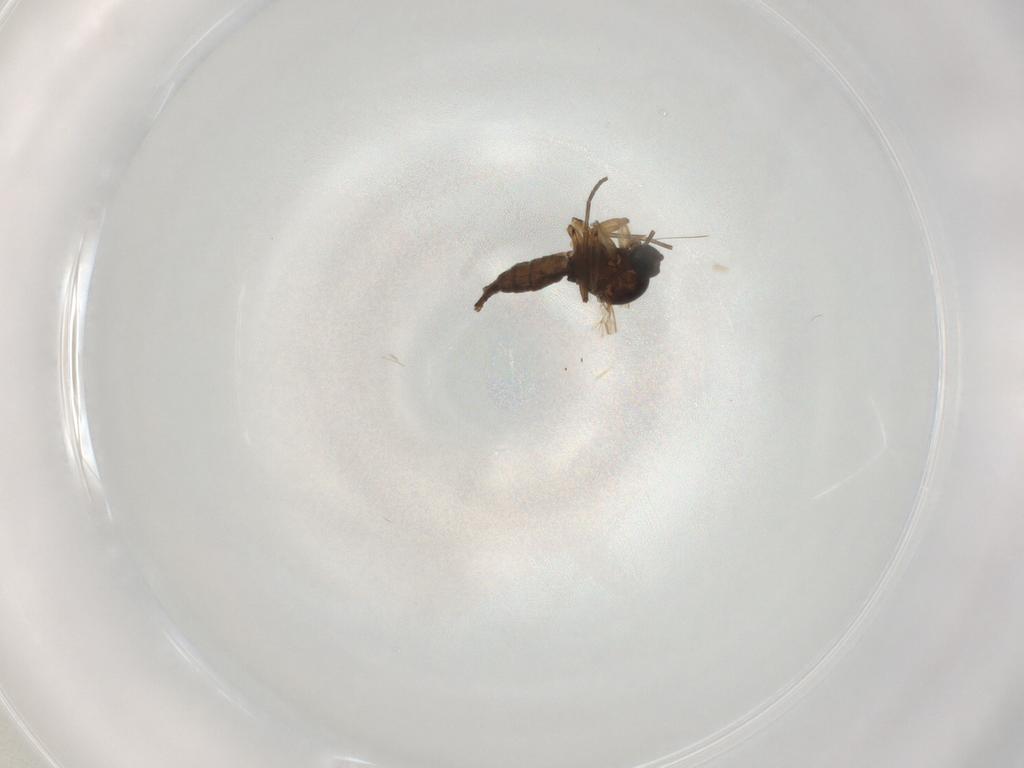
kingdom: Animalia
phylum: Arthropoda
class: Insecta
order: Diptera
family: Sciaridae
